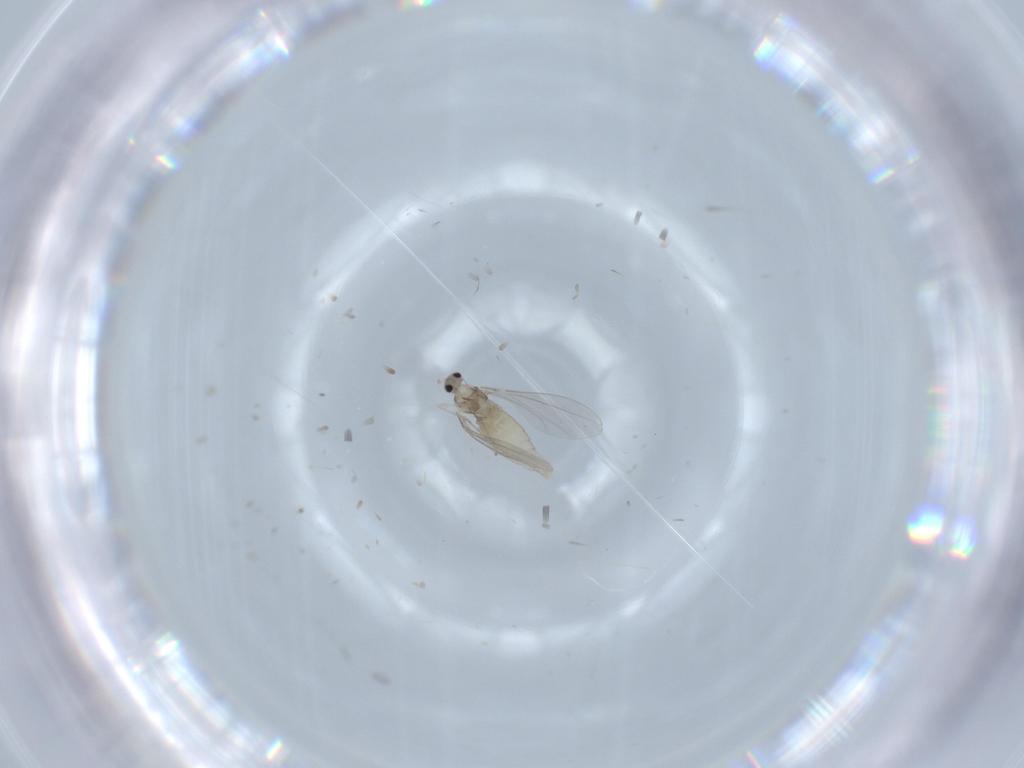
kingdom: Animalia
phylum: Arthropoda
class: Insecta
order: Diptera
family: Cecidomyiidae
